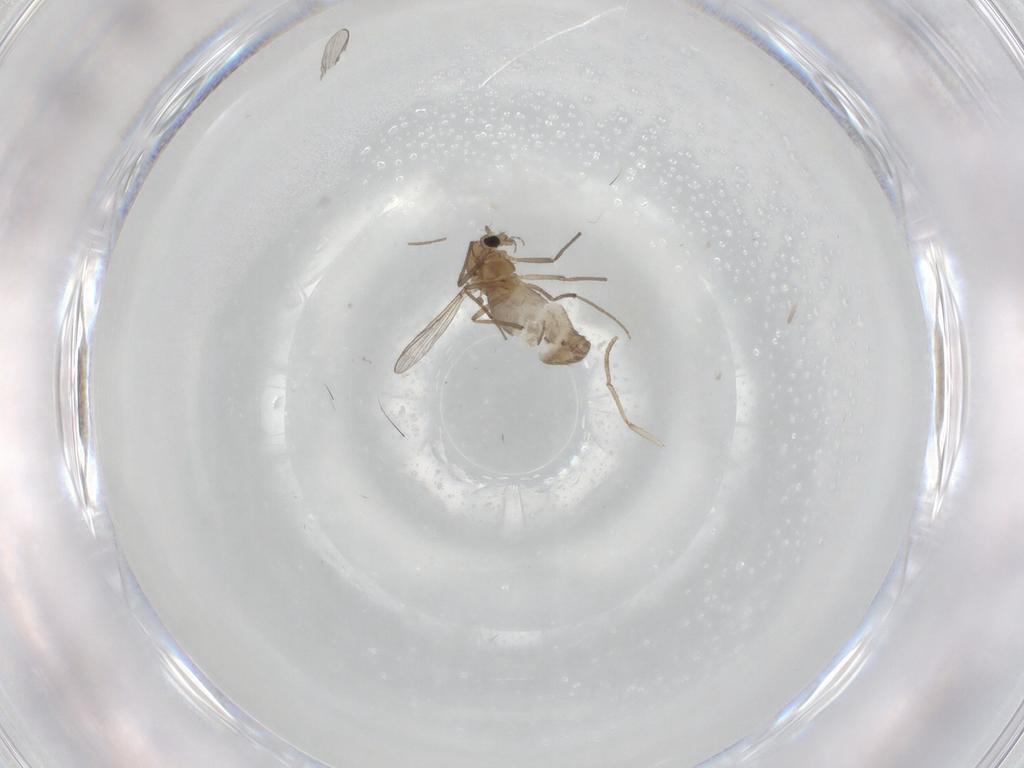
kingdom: Animalia
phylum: Arthropoda
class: Insecta
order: Diptera
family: Chironomidae
